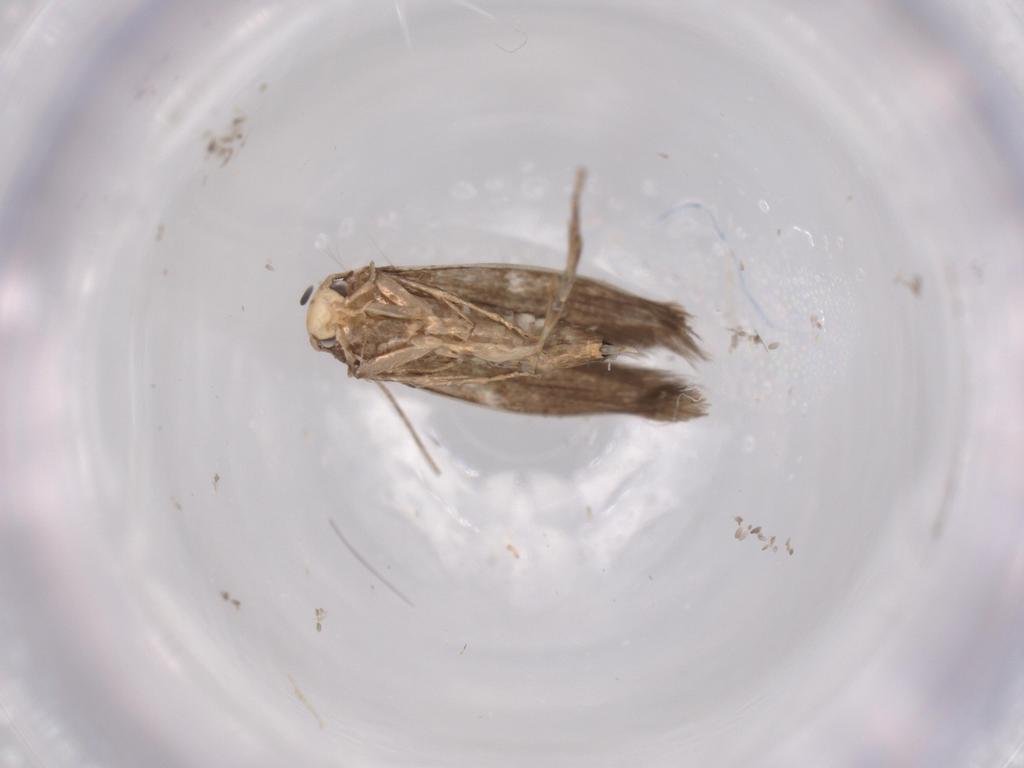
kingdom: Animalia
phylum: Arthropoda
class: Insecta
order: Lepidoptera
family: Tineidae
